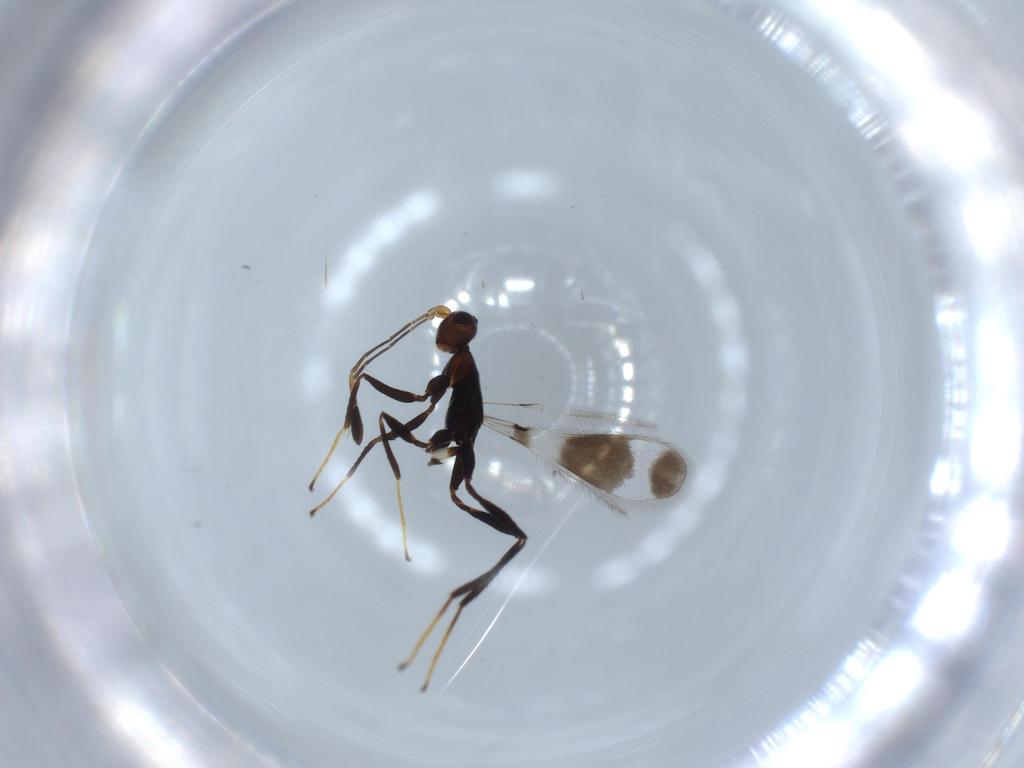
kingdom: Animalia
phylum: Arthropoda
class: Insecta
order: Hymenoptera
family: Mymaridae
